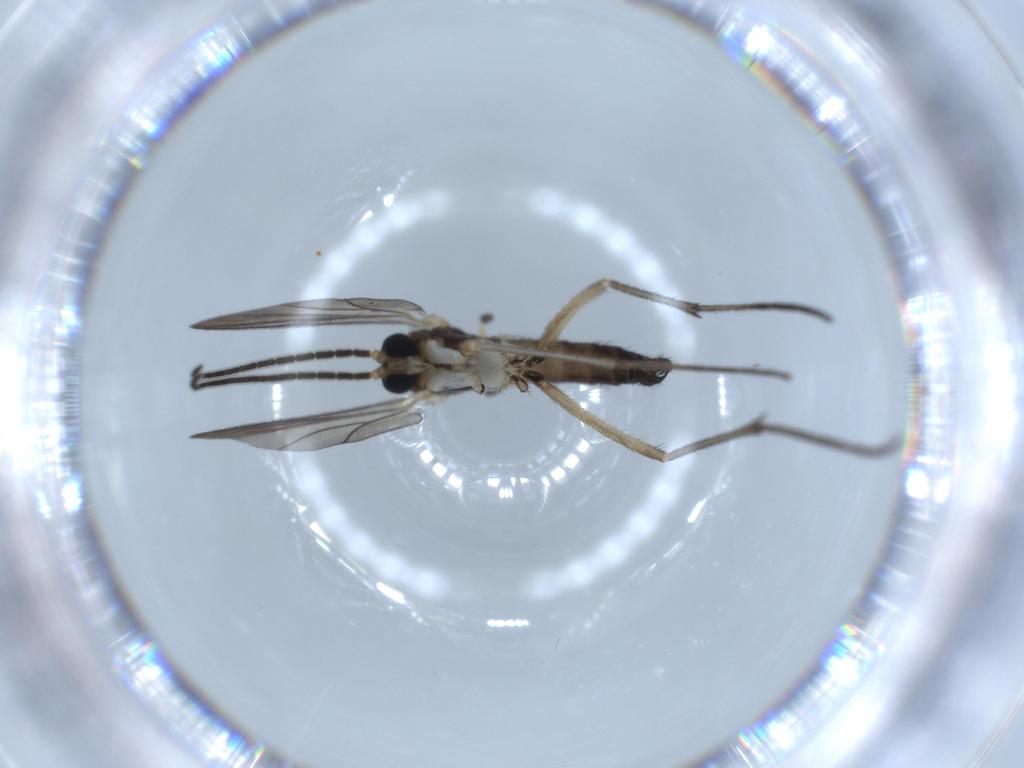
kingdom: Animalia
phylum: Arthropoda
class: Insecta
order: Diptera
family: Sciaridae
